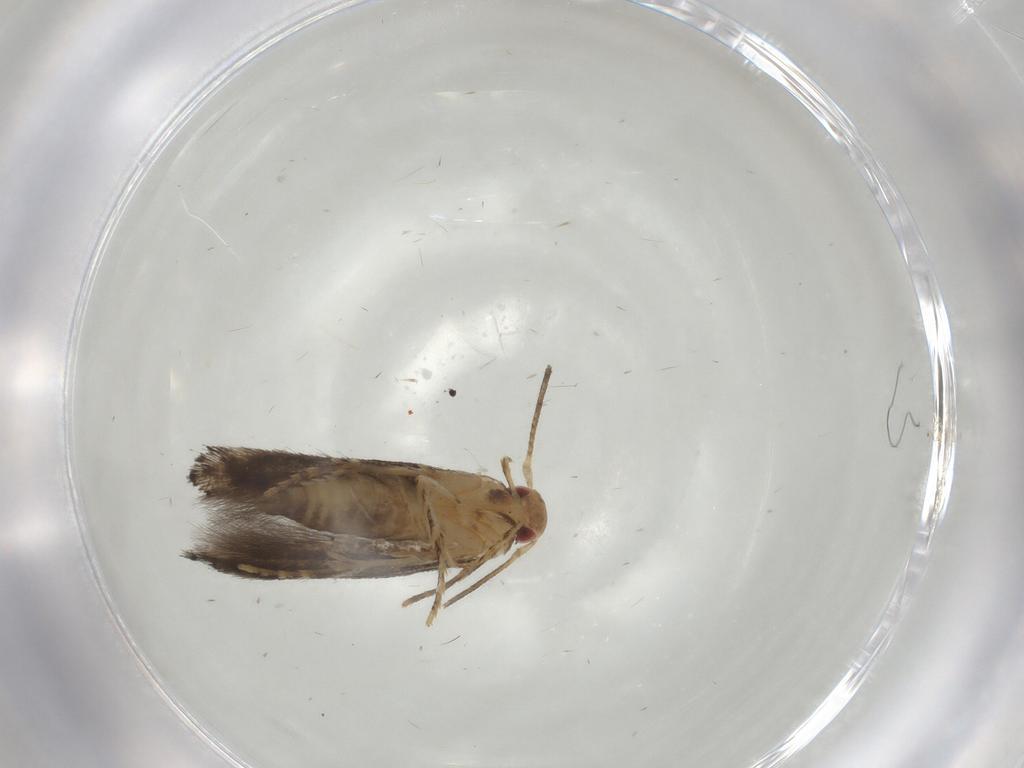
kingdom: Animalia
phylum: Arthropoda
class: Insecta
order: Lepidoptera
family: Momphidae
